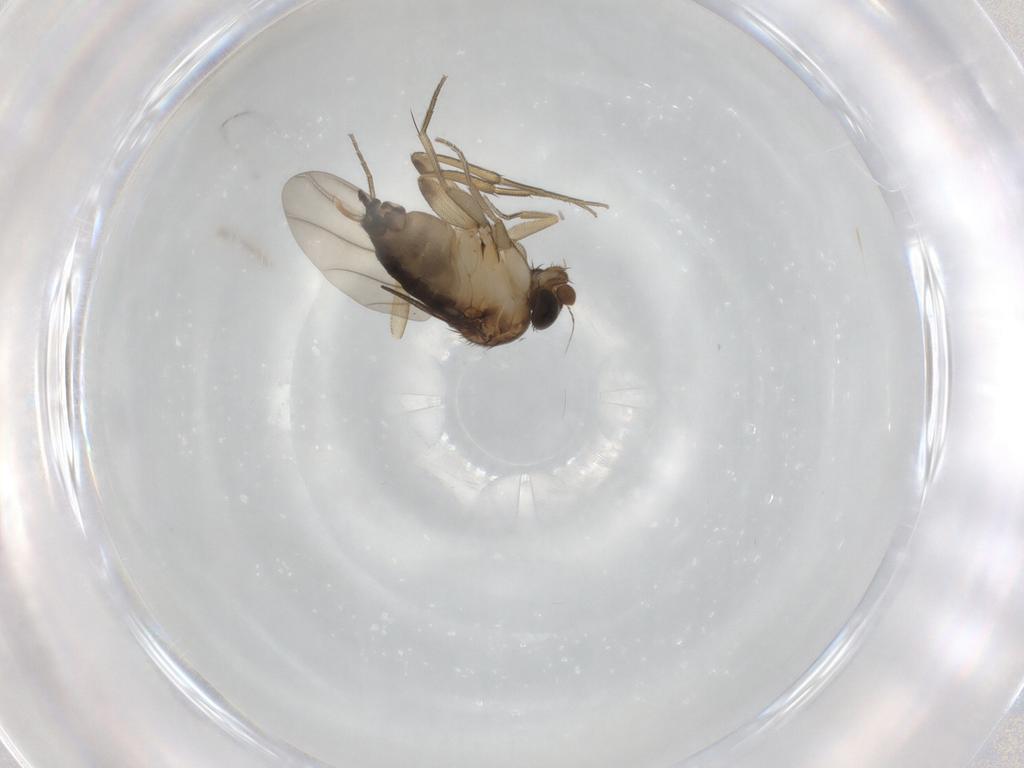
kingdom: Animalia
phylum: Arthropoda
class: Insecta
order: Diptera
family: Phoridae
